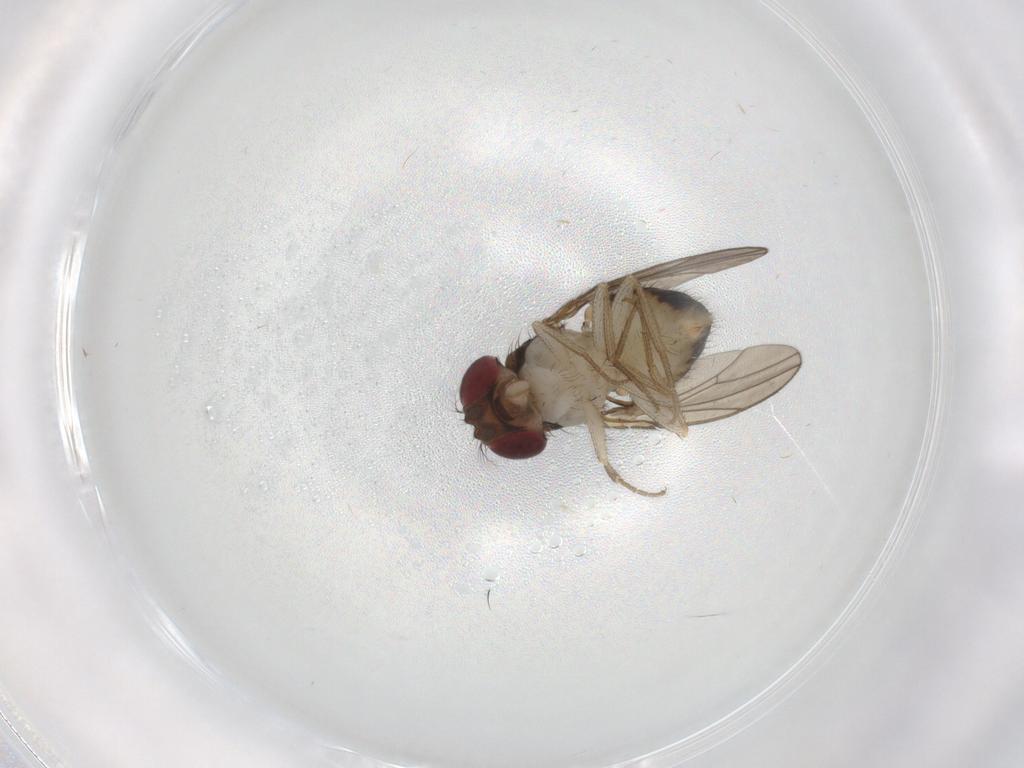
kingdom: Animalia
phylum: Arthropoda
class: Insecta
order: Diptera
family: Drosophilidae
